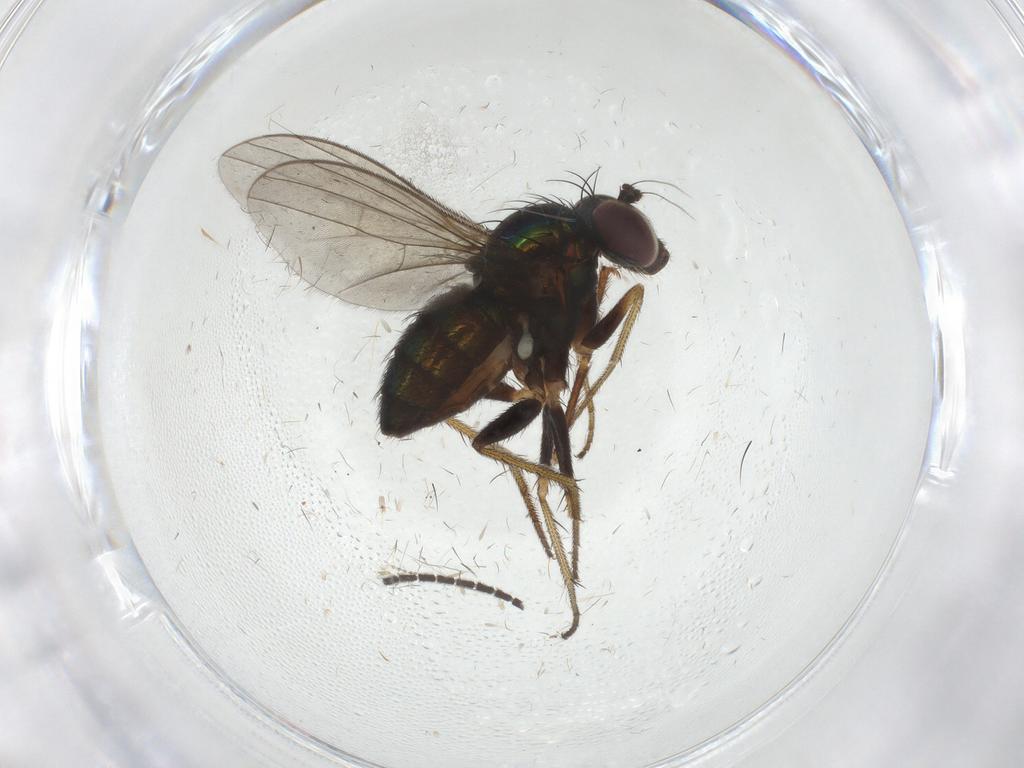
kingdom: Animalia
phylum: Arthropoda
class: Insecta
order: Diptera
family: Sciaridae
